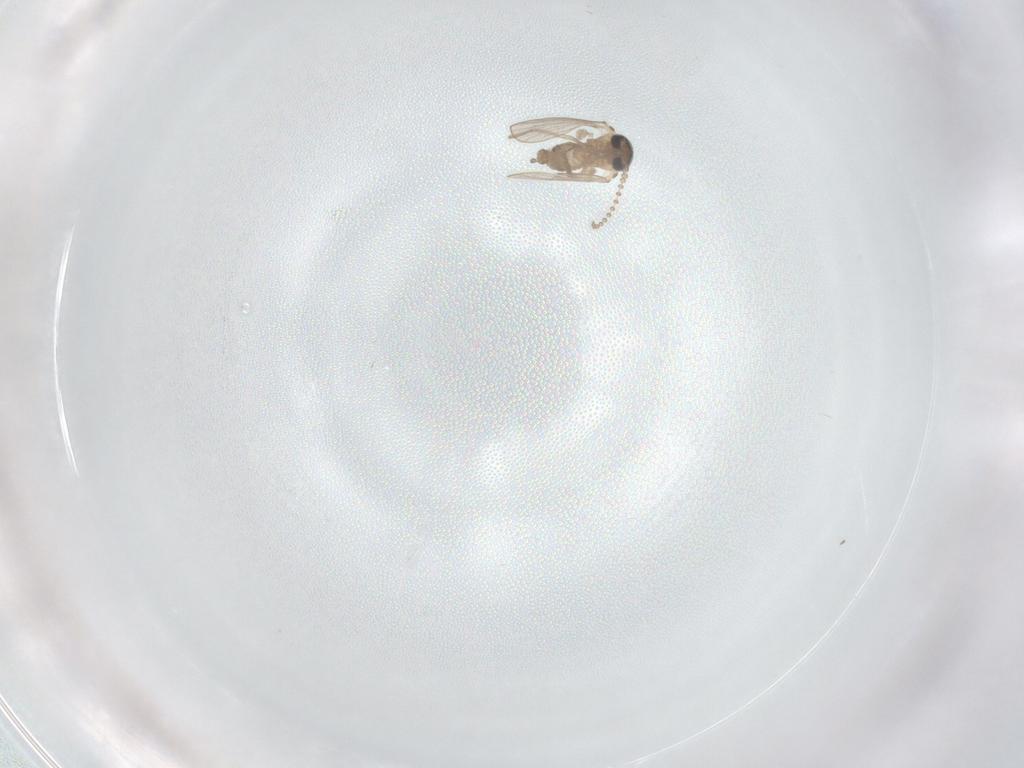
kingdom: Animalia
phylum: Arthropoda
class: Insecta
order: Diptera
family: Psychodidae
